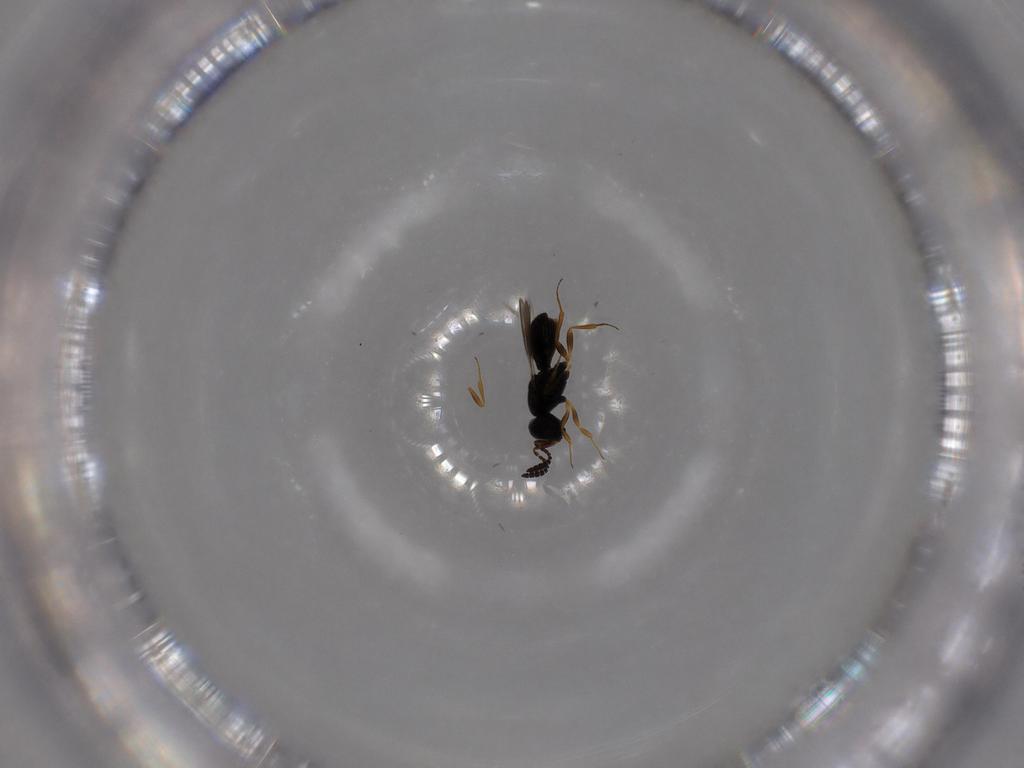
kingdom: Animalia
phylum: Arthropoda
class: Insecta
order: Hymenoptera
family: Scelionidae
